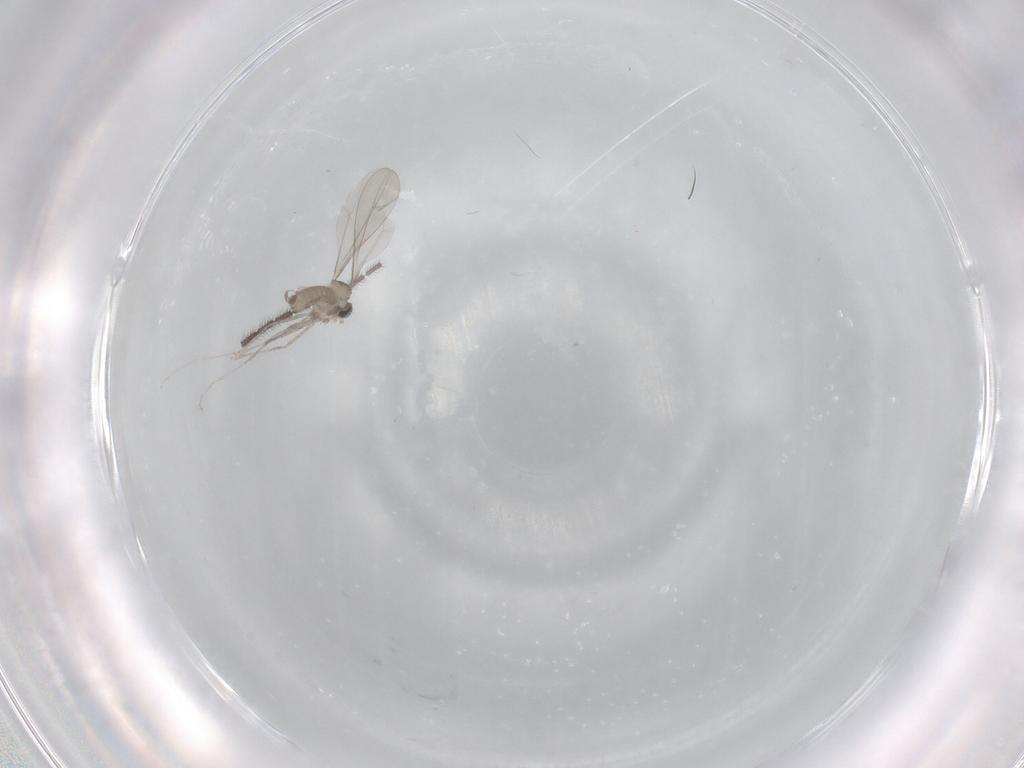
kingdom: Animalia
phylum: Arthropoda
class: Insecta
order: Diptera
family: Cecidomyiidae
